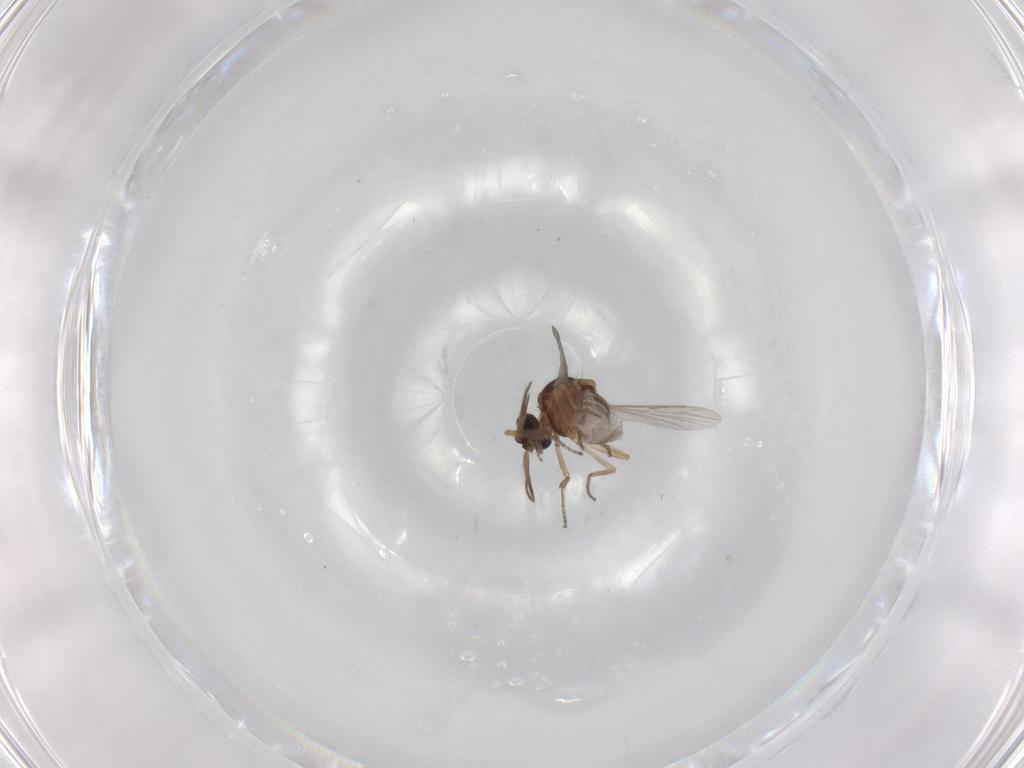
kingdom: Animalia
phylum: Arthropoda
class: Insecta
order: Diptera
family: Ceratopogonidae
